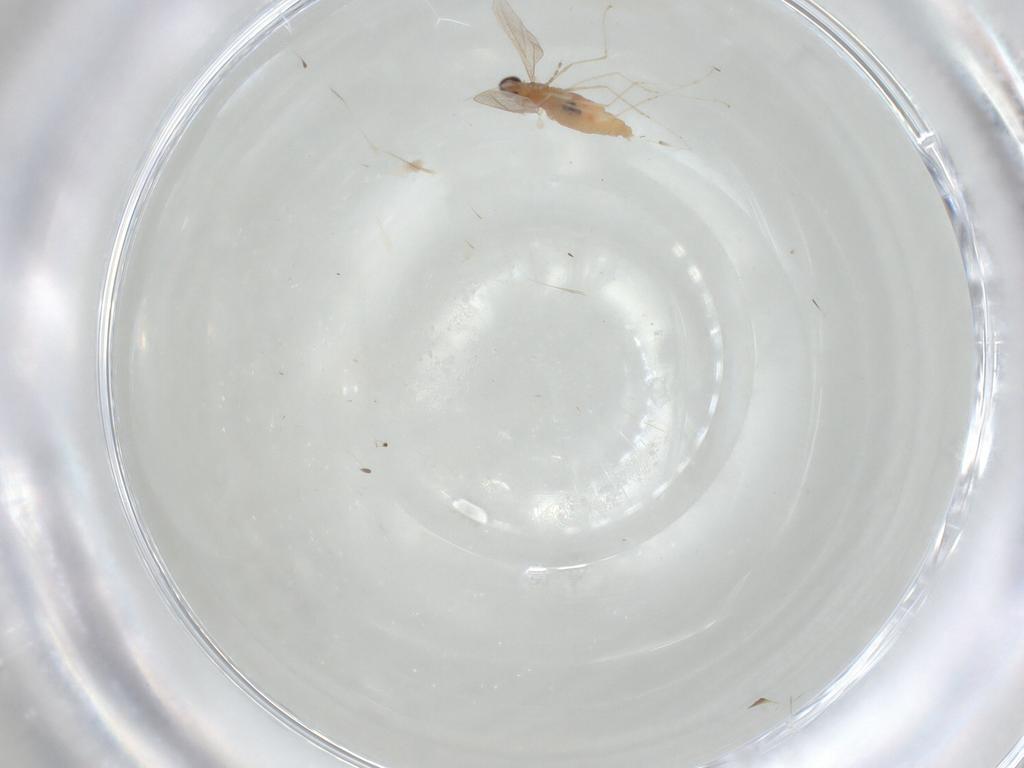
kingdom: Animalia
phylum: Arthropoda
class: Insecta
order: Diptera
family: Cecidomyiidae
